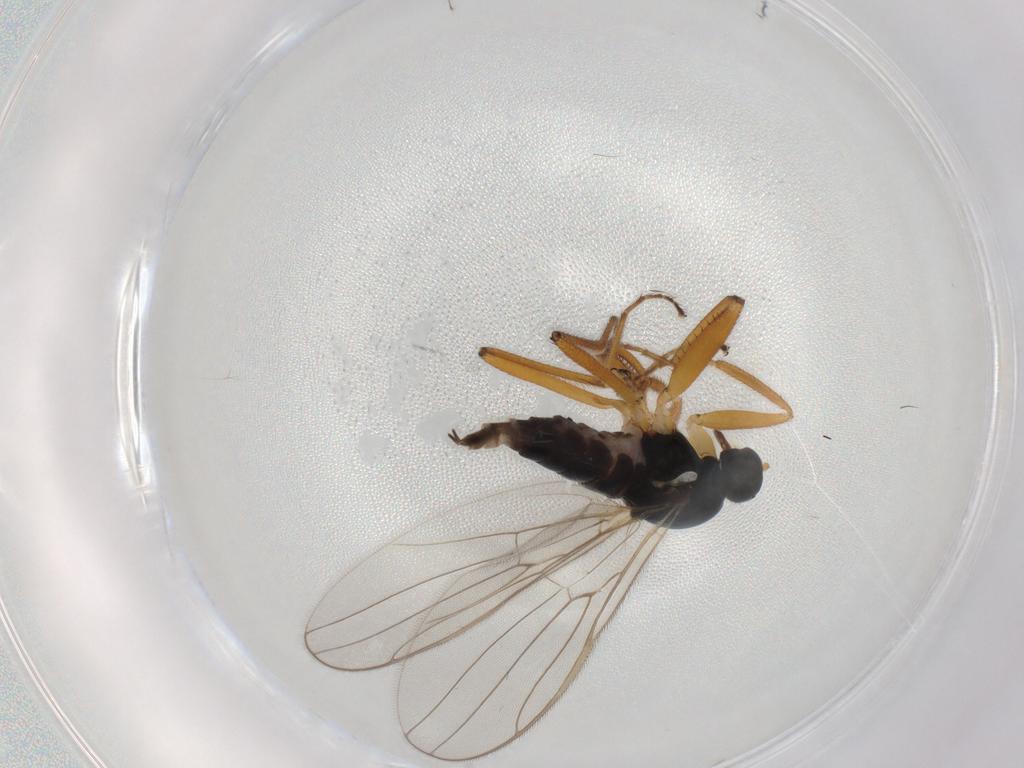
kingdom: Animalia
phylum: Arthropoda
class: Insecta
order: Diptera
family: Hybotidae
